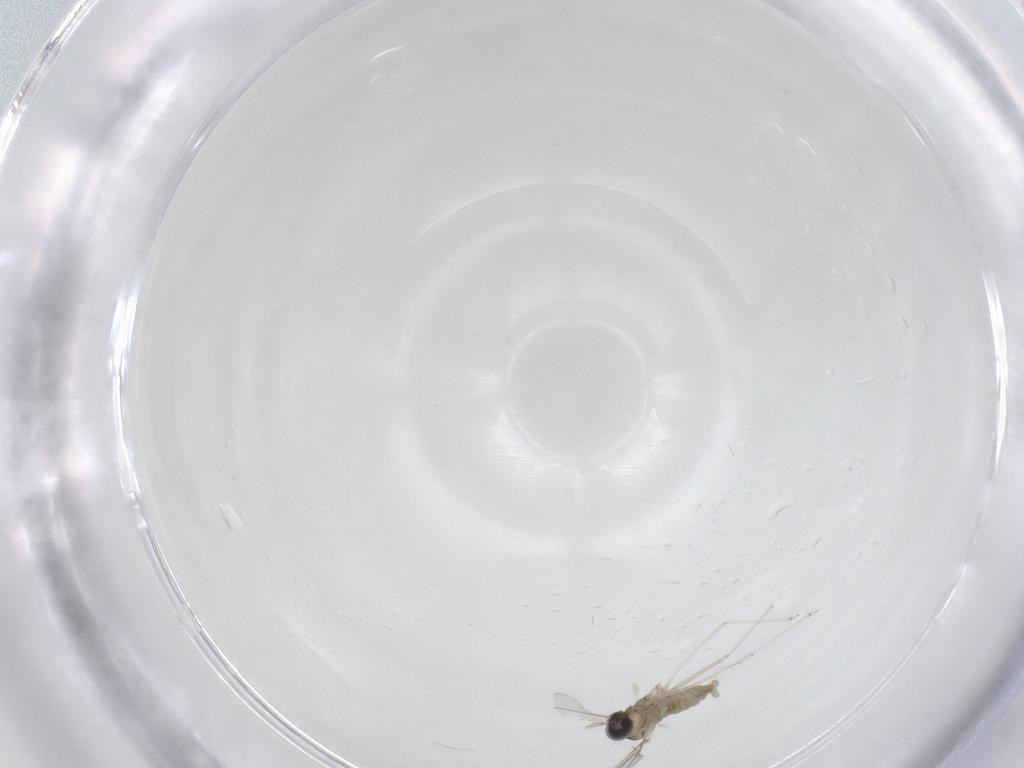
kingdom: Animalia
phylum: Arthropoda
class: Insecta
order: Diptera
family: Cecidomyiidae
